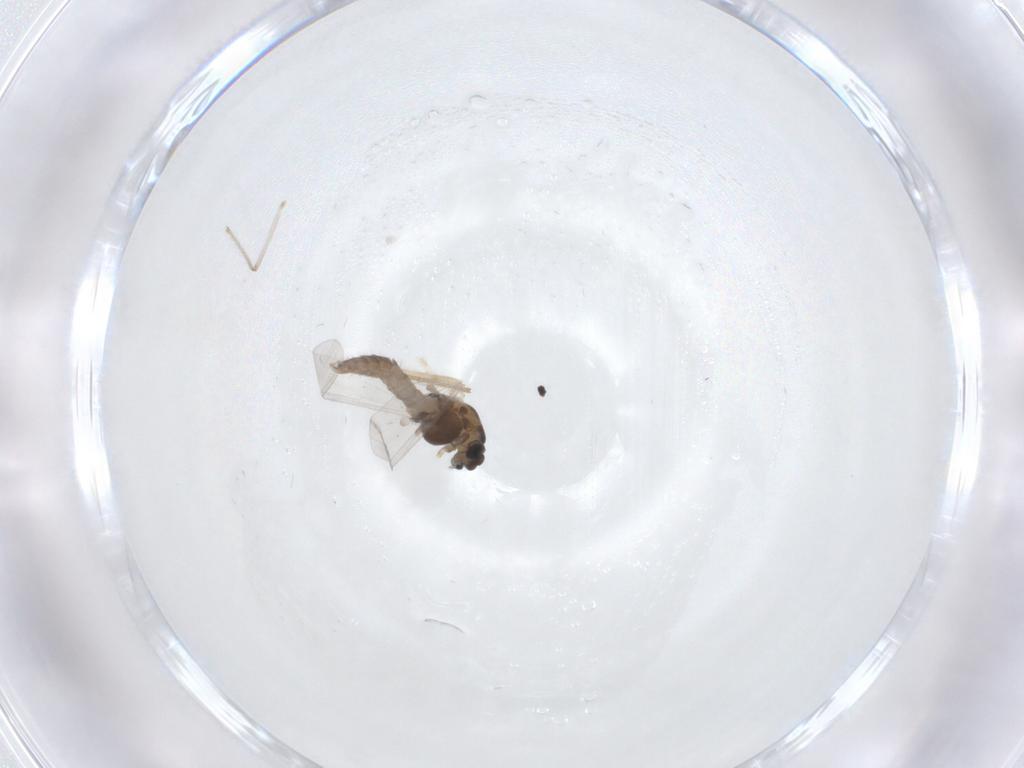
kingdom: Animalia
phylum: Arthropoda
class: Insecta
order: Diptera
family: Chironomidae
